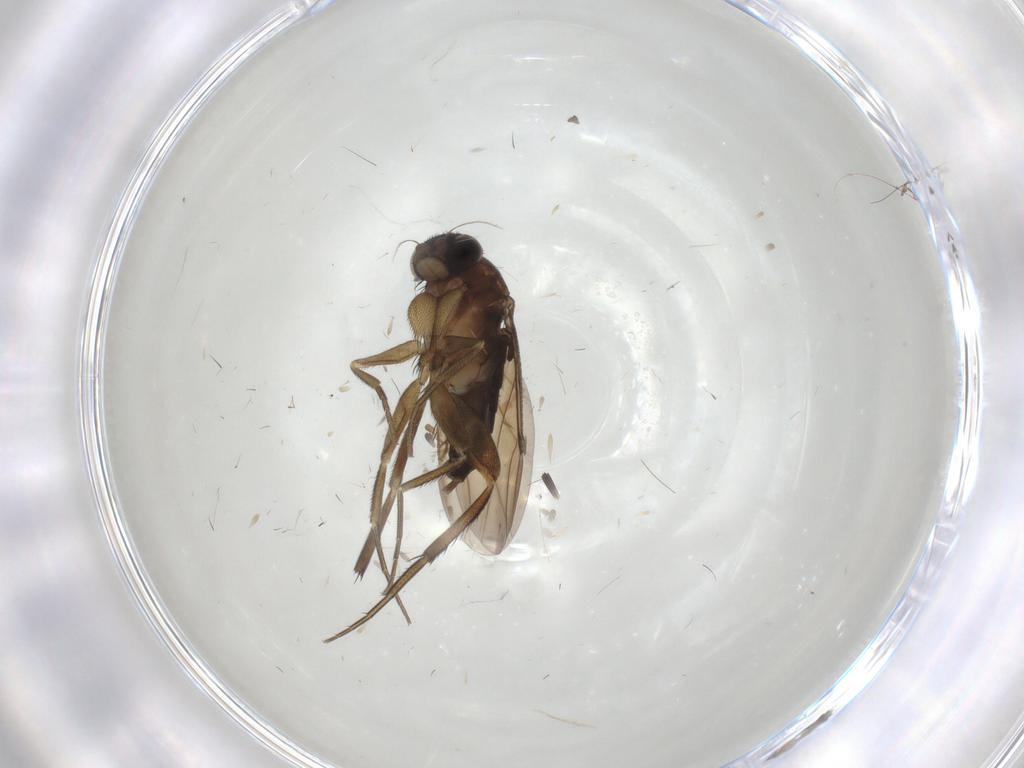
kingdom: Animalia
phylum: Arthropoda
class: Insecta
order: Diptera
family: Phoridae
